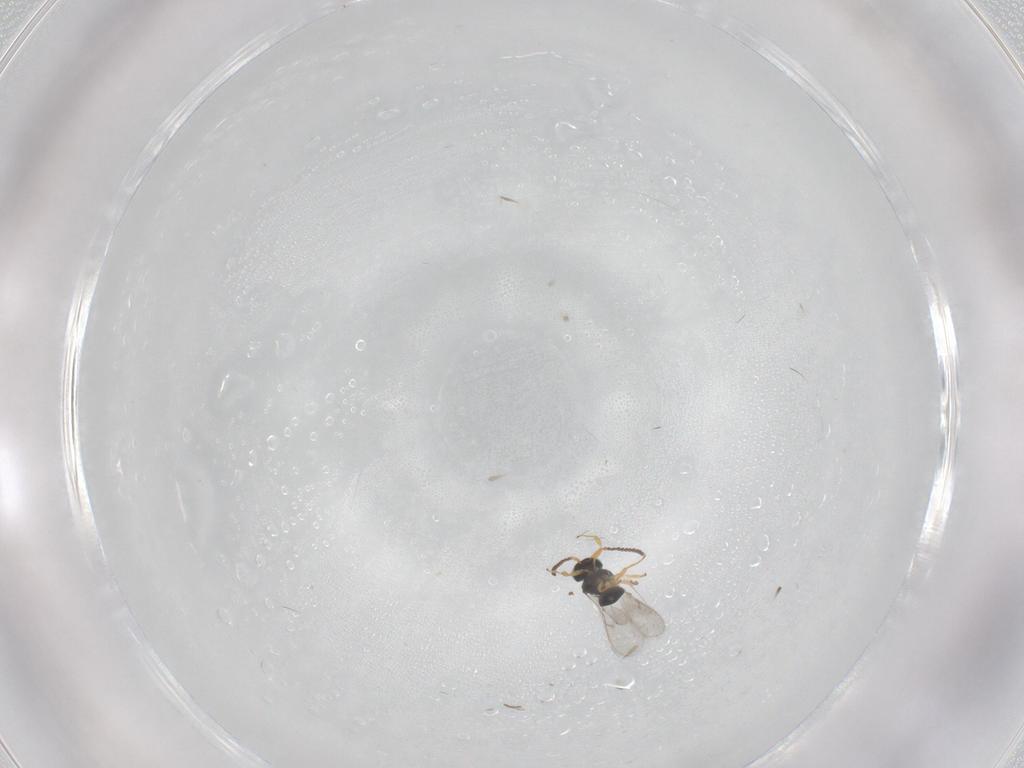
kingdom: Animalia
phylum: Arthropoda
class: Insecta
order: Hymenoptera
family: Scelionidae
